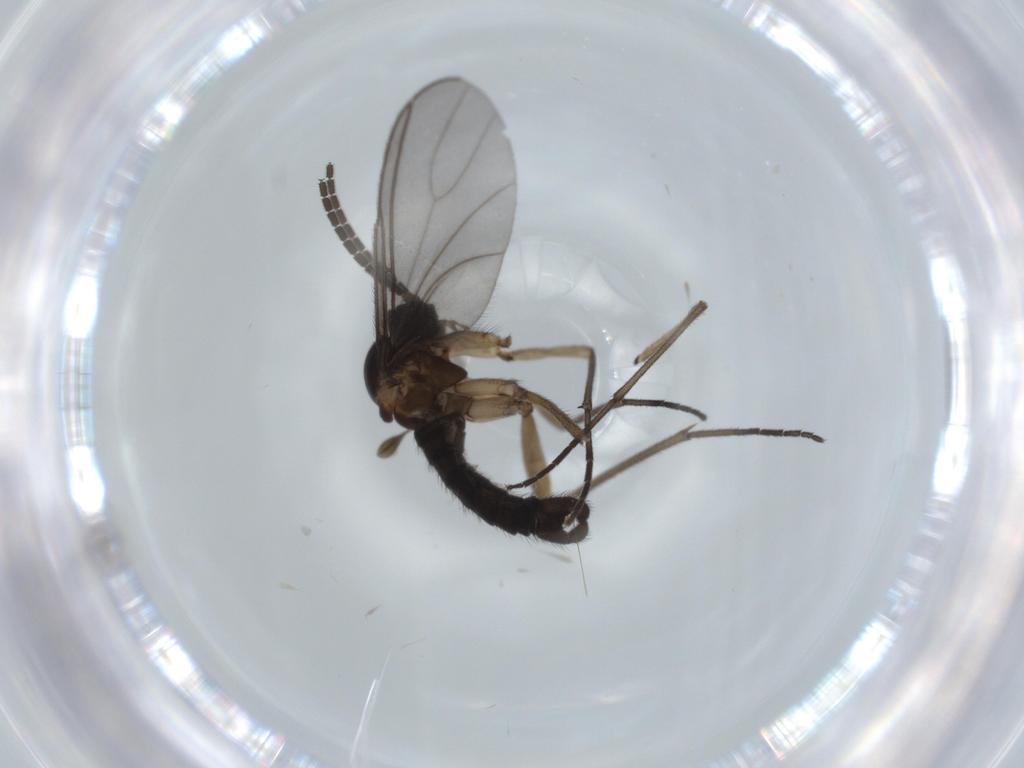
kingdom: Animalia
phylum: Arthropoda
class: Insecta
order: Diptera
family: Sciaridae
